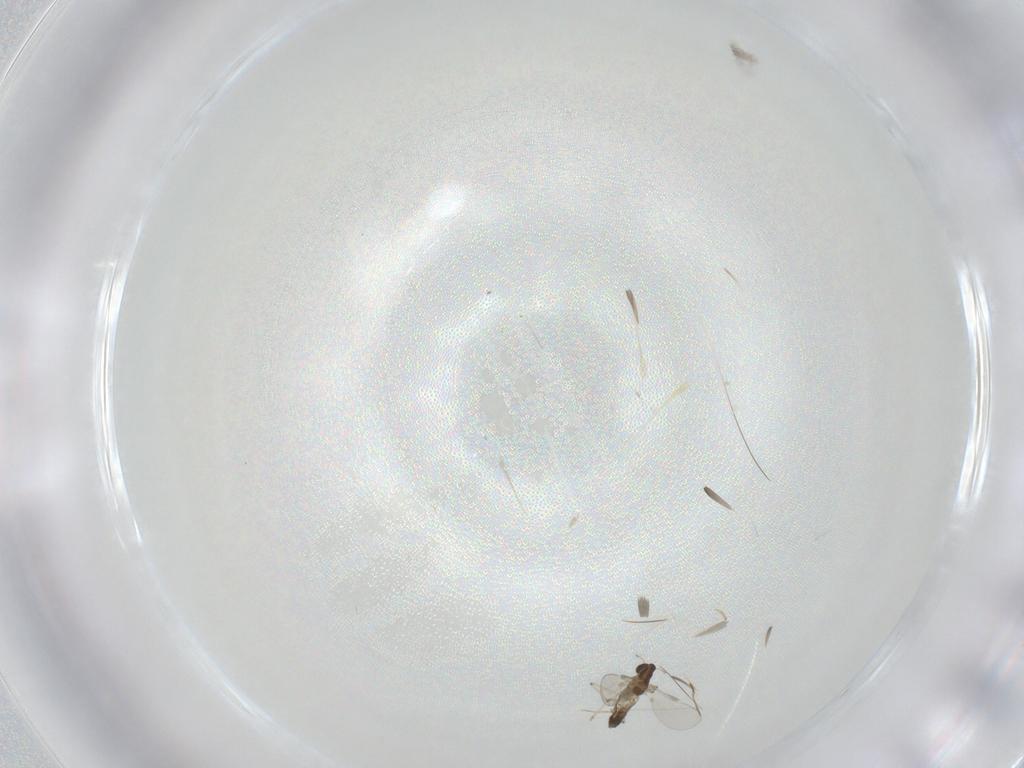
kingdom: Animalia
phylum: Arthropoda
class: Insecta
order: Diptera
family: Chironomidae
